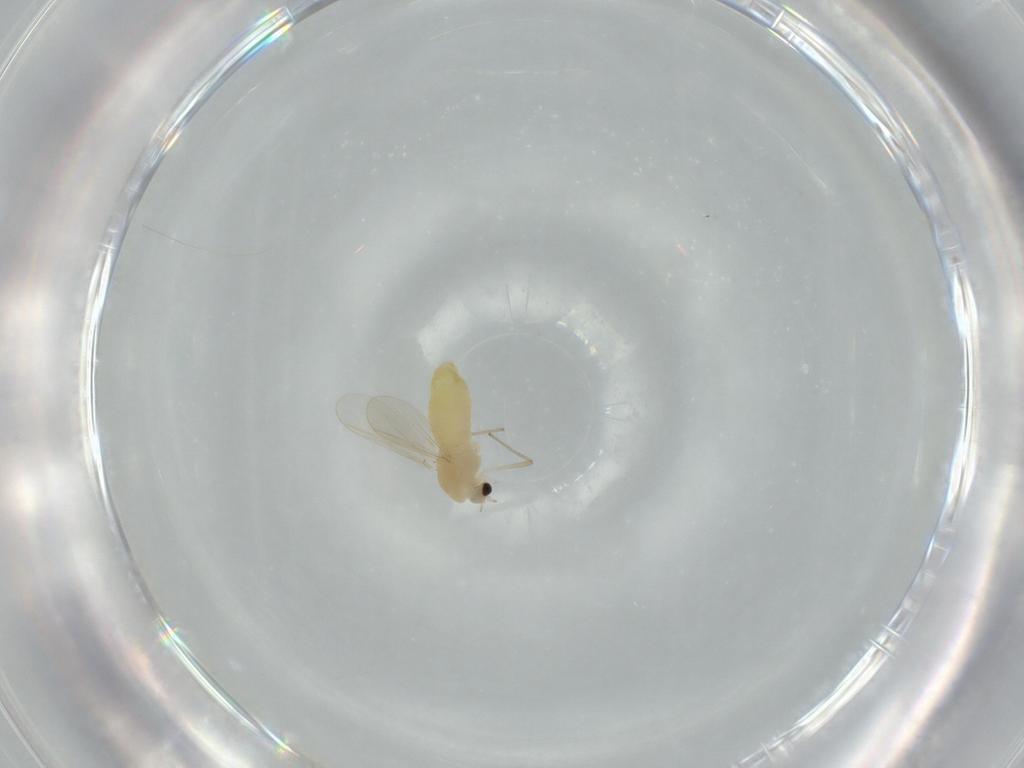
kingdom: Animalia
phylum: Arthropoda
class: Insecta
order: Diptera
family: Chironomidae
